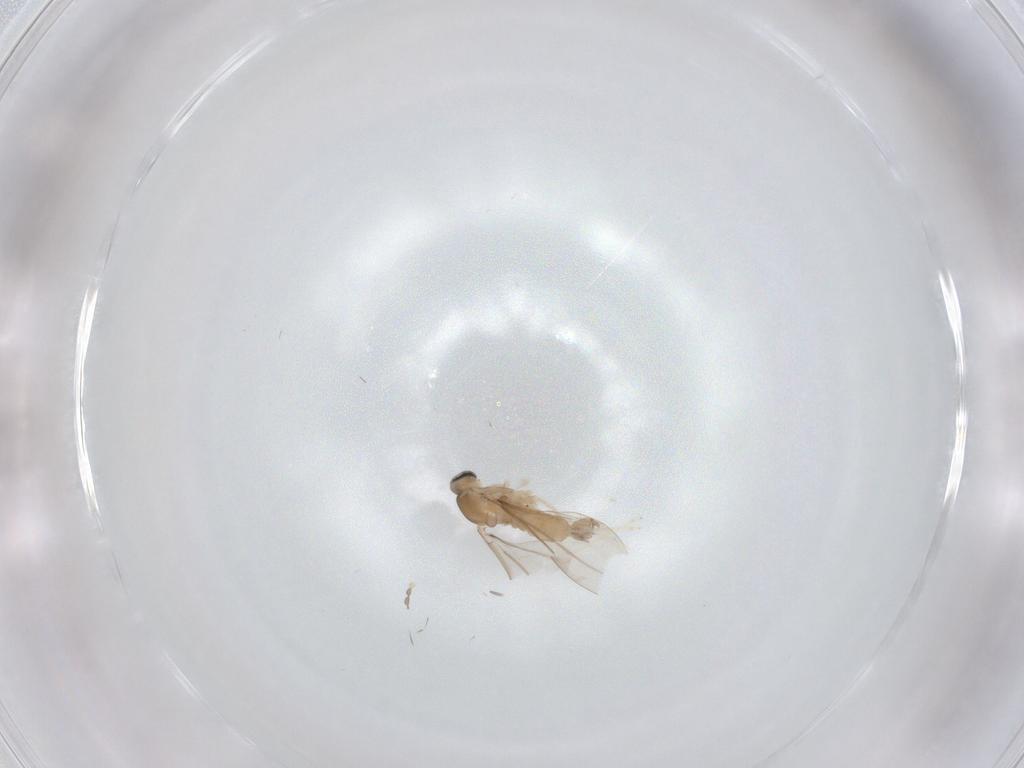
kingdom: Animalia
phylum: Arthropoda
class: Insecta
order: Diptera
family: Cecidomyiidae
